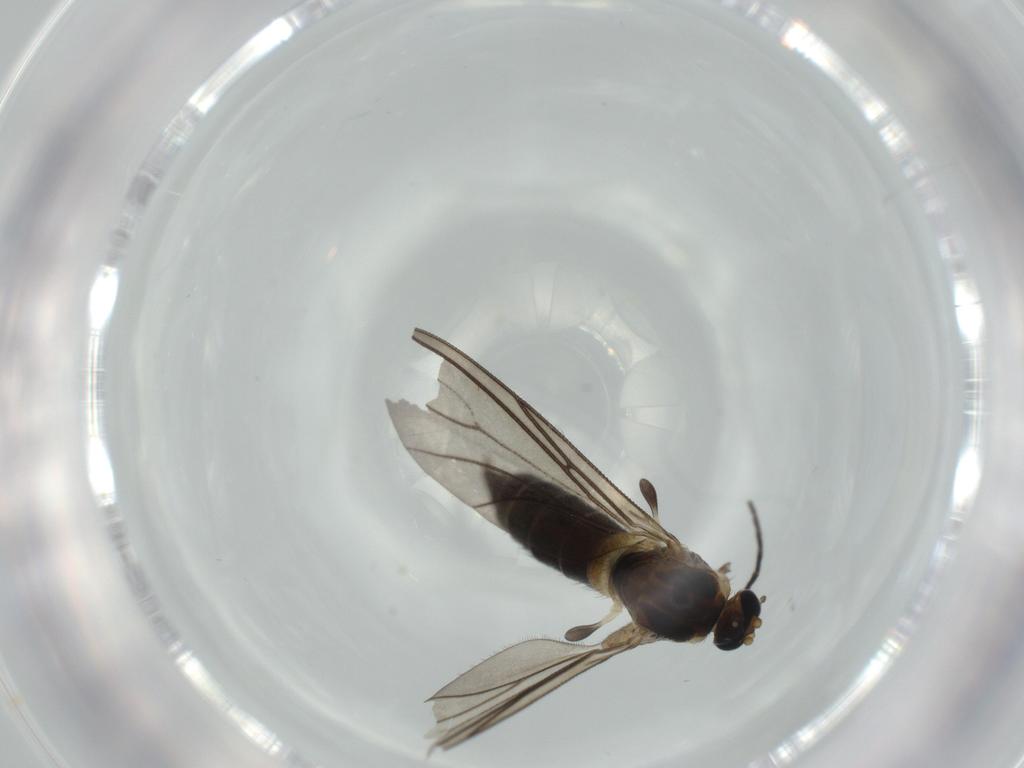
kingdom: Animalia
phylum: Arthropoda
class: Insecta
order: Diptera
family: Sciaridae
